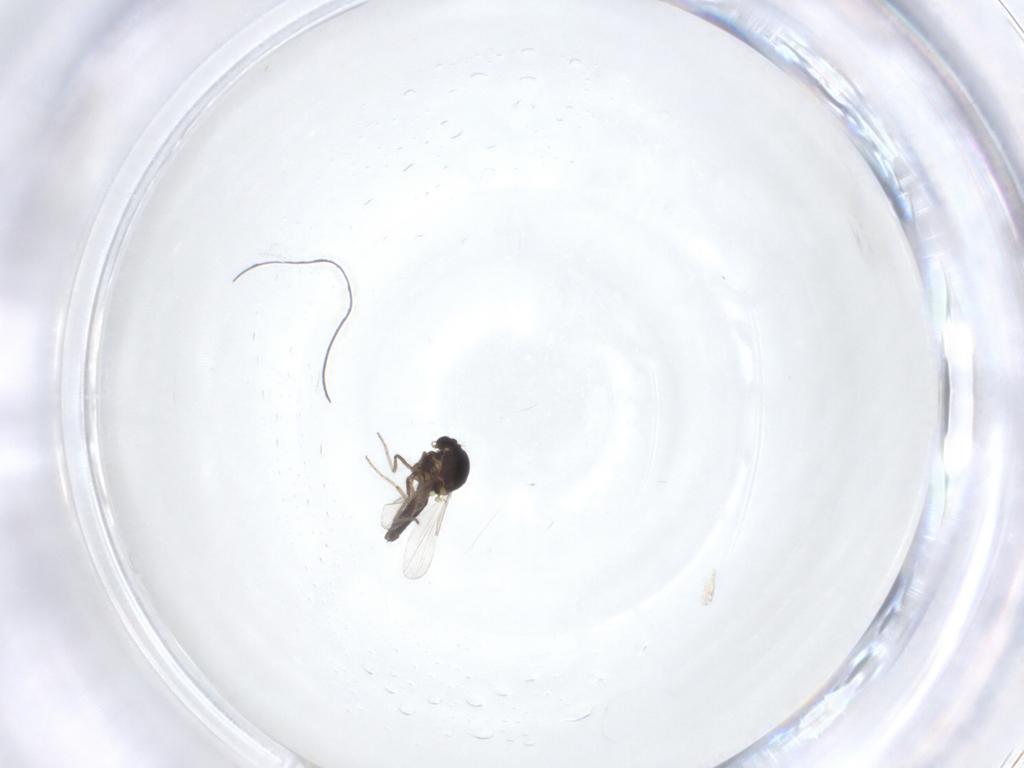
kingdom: Animalia
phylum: Arthropoda
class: Insecta
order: Diptera
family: Ceratopogonidae
